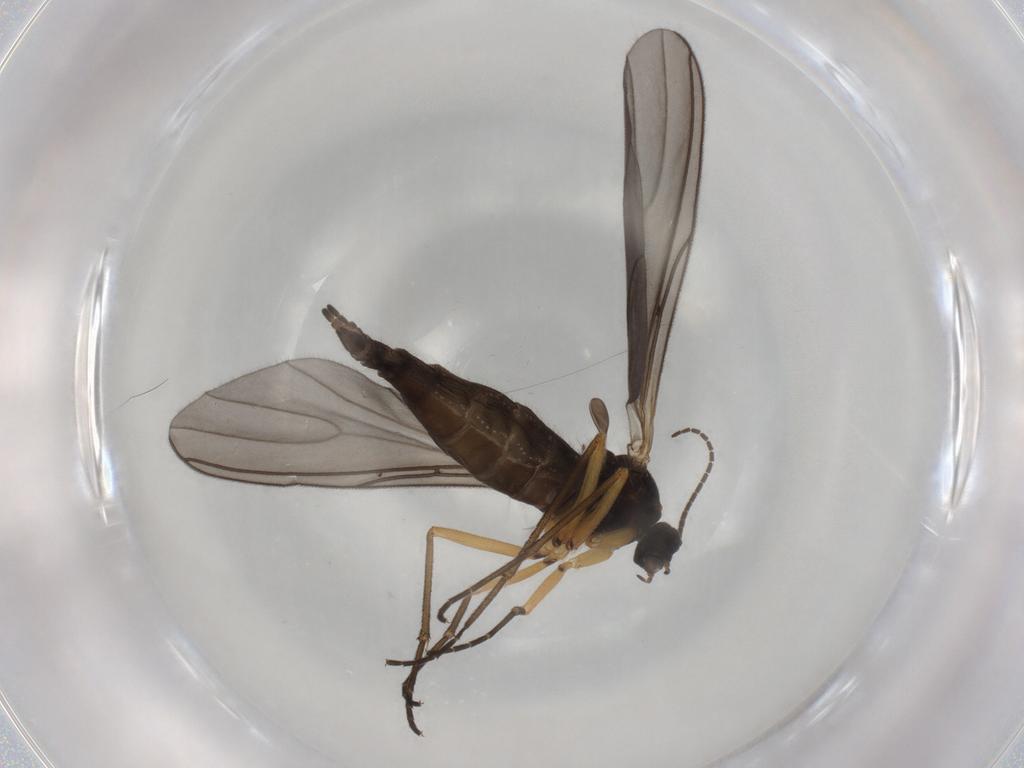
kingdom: Animalia
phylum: Arthropoda
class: Insecta
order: Diptera
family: Sciaridae
